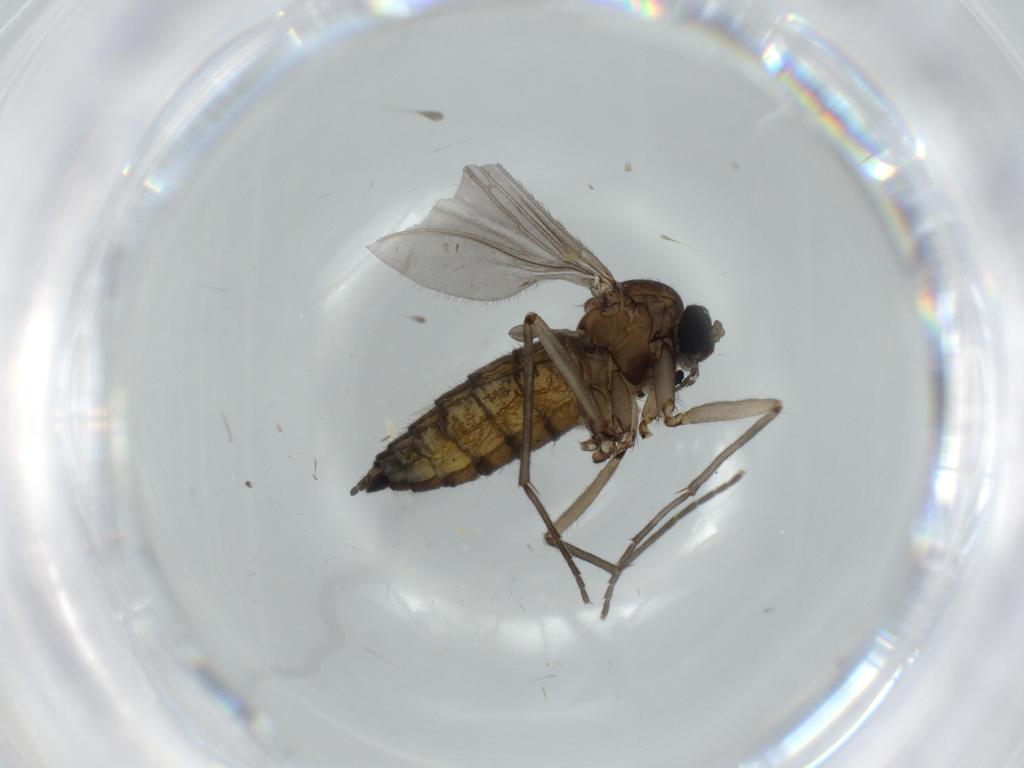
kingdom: Animalia
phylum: Arthropoda
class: Insecta
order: Diptera
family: Sciaridae
